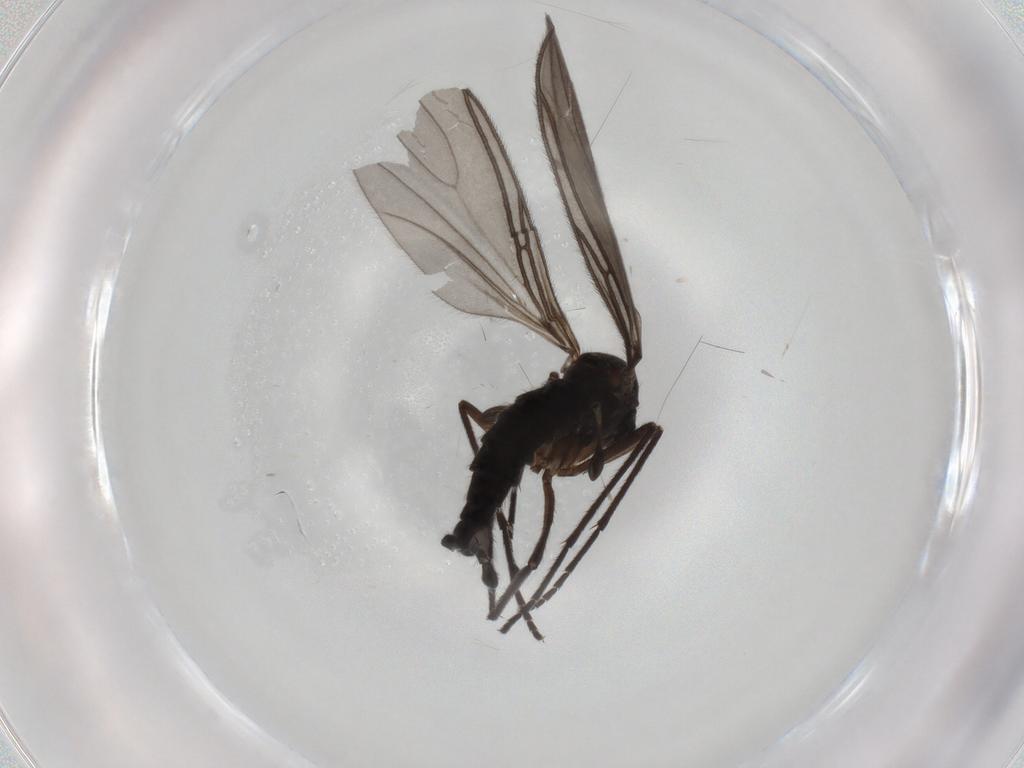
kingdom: Animalia
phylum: Arthropoda
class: Insecta
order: Diptera
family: Sciaridae
